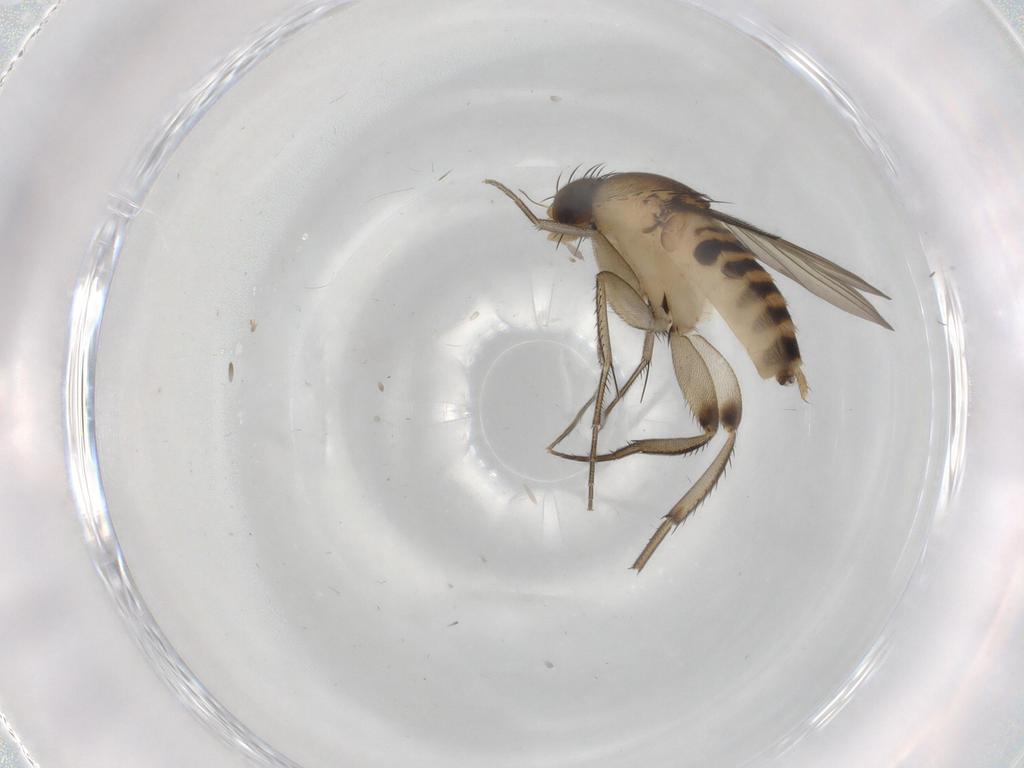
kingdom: Animalia
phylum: Arthropoda
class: Insecta
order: Diptera
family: Phoridae
